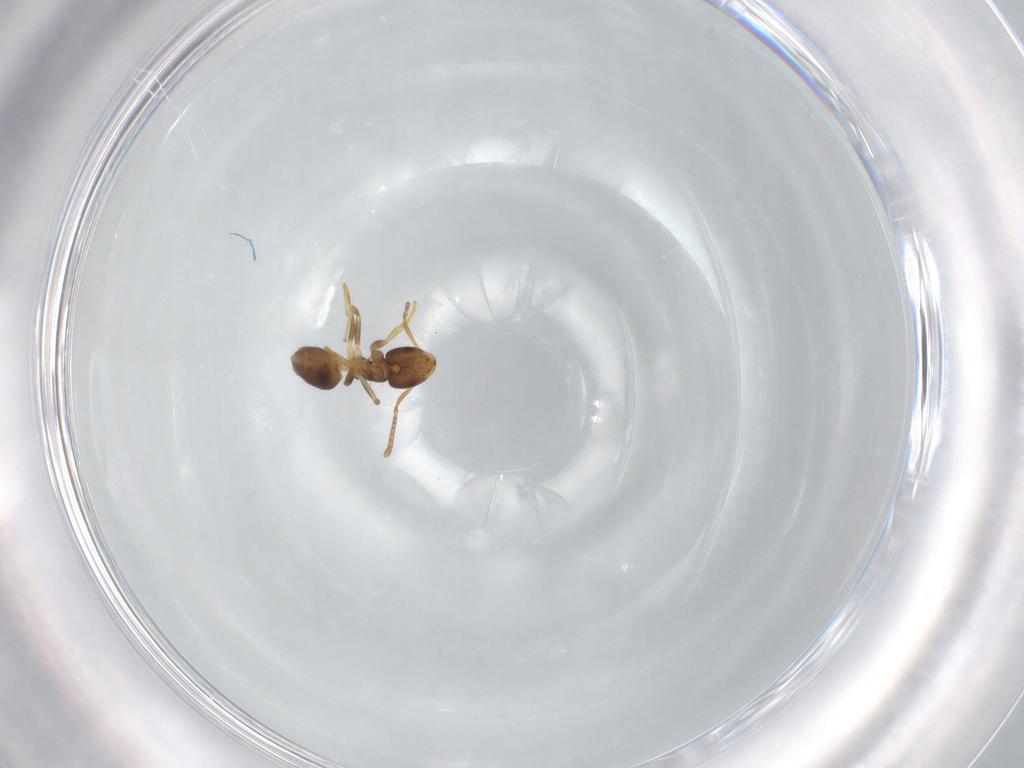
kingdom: Animalia
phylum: Arthropoda
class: Insecta
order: Hymenoptera
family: Formicidae
